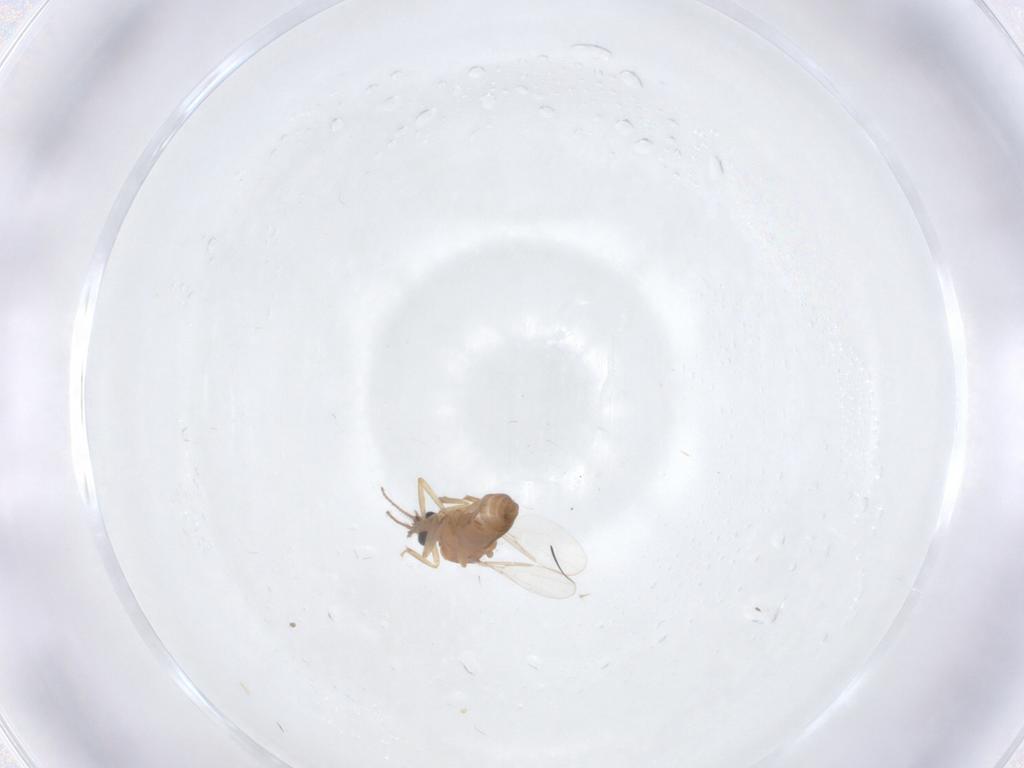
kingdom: Animalia
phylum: Arthropoda
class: Insecta
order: Diptera
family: Ceratopogonidae
